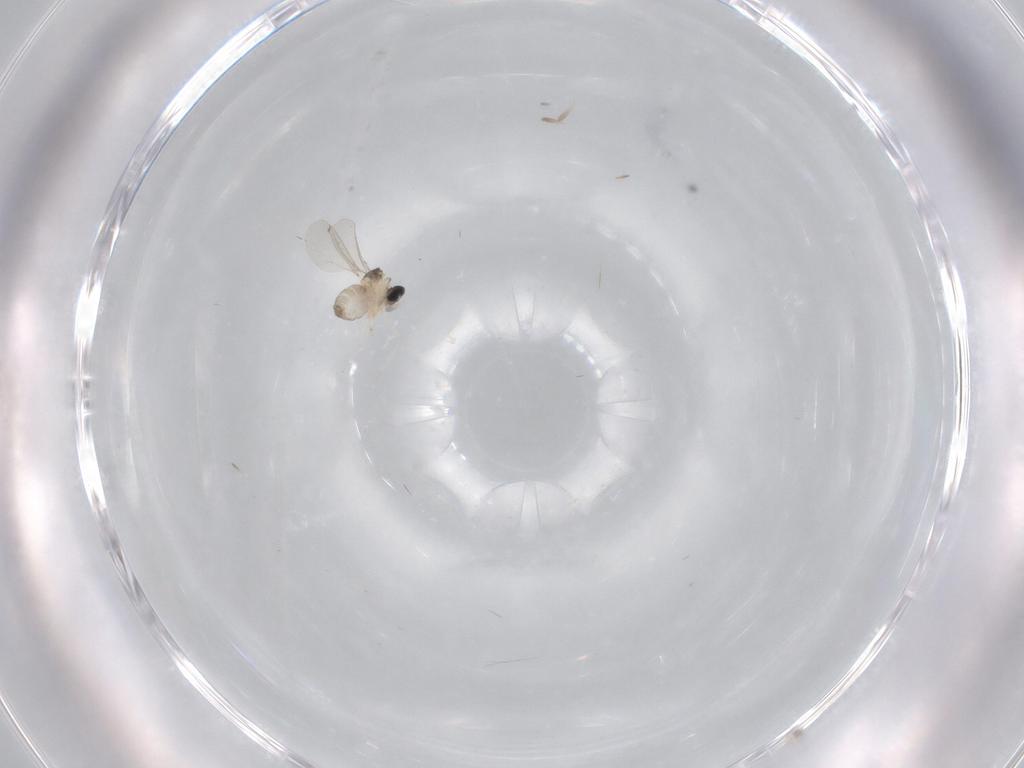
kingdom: Animalia
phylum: Arthropoda
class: Insecta
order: Diptera
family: Cecidomyiidae
